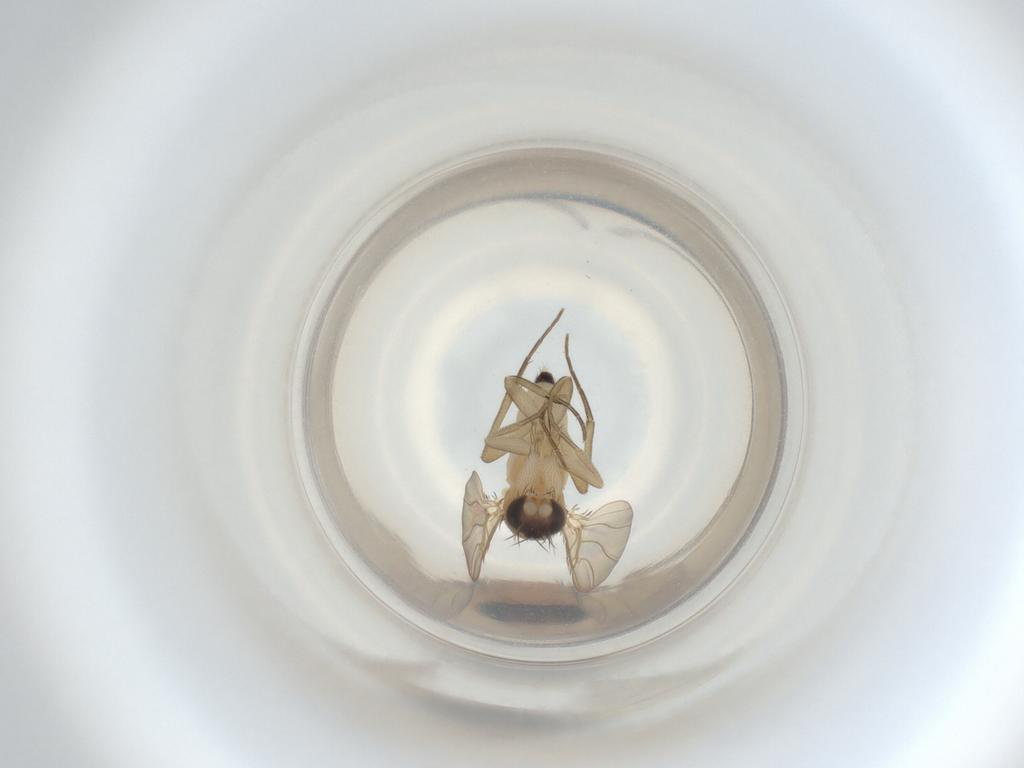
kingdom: Animalia
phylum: Arthropoda
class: Insecta
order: Diptera
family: Phoridae
